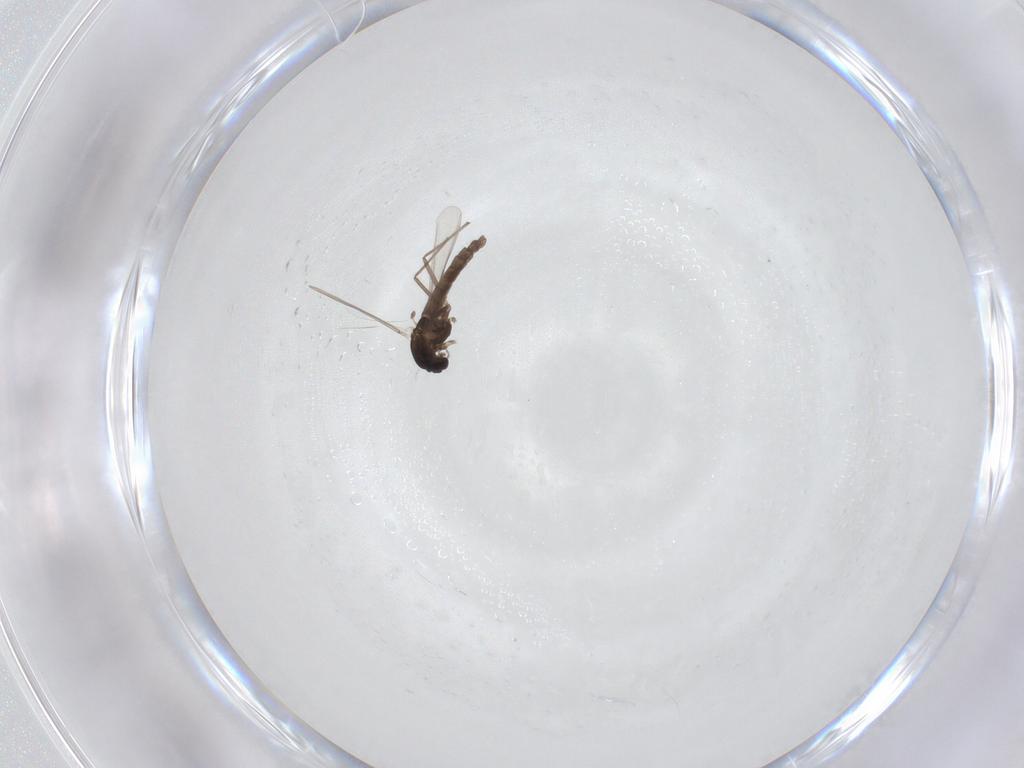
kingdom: Animalia
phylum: Arthropoda
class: Insecta
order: Diptera
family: Chironomidae
